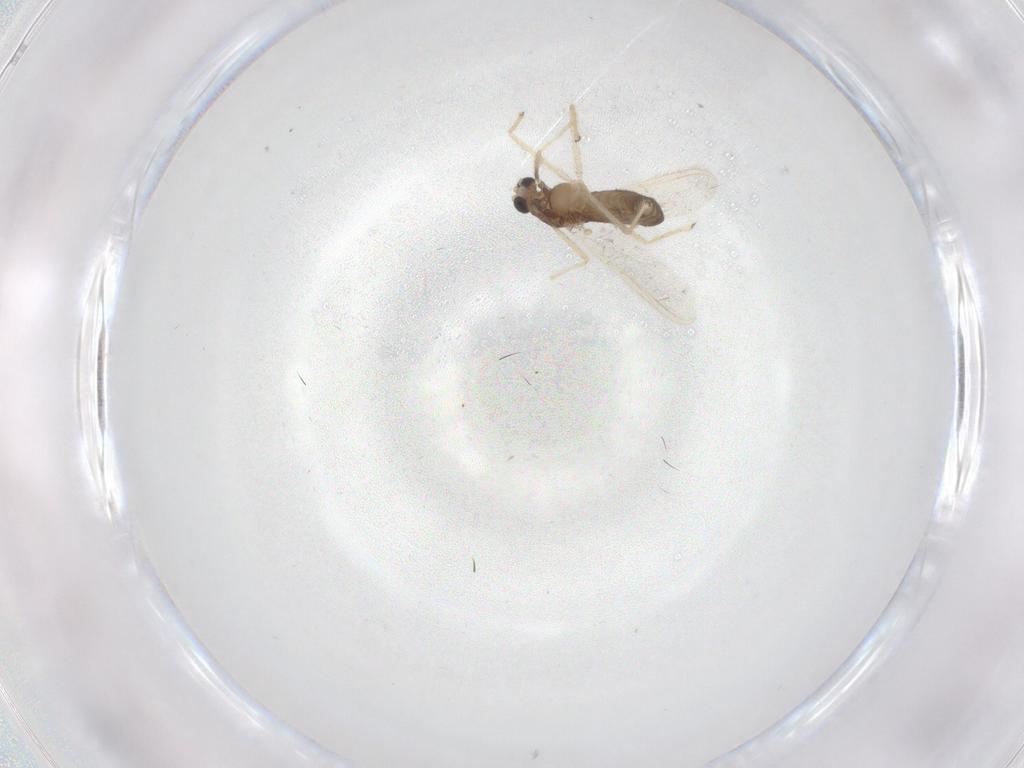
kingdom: Animalia
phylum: Arthropoda
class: Insecta
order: Diptera
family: Chironomidae
